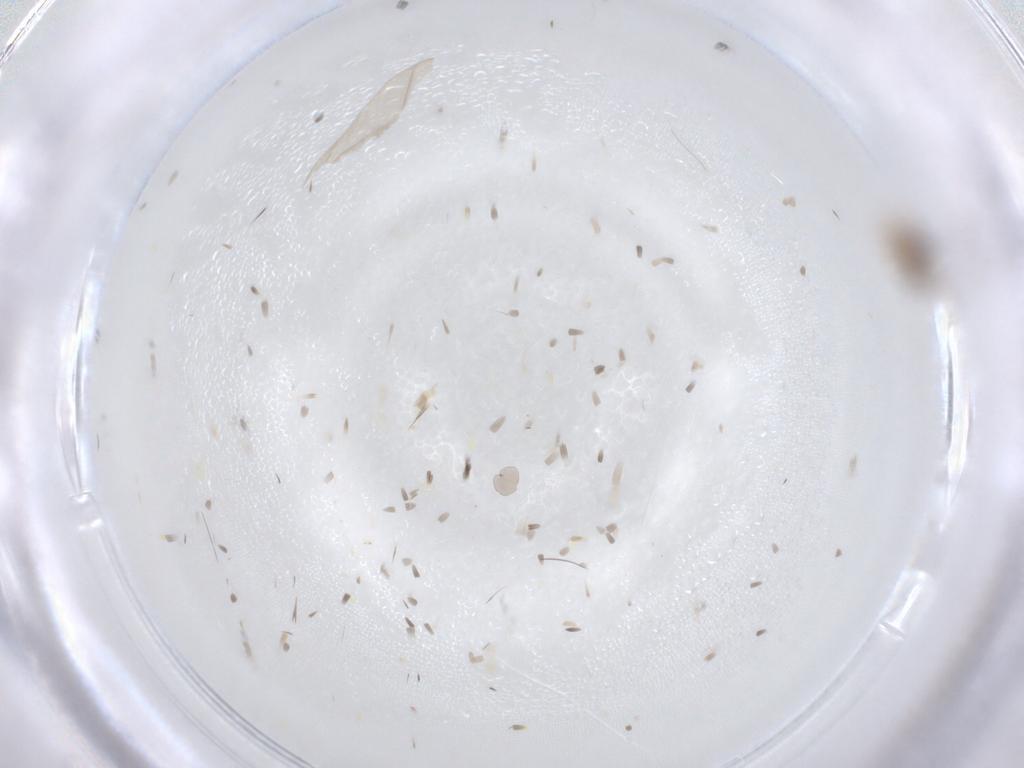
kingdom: Animalia
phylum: Arthropoda
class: Insecta
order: Diptera
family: Psychodidae
